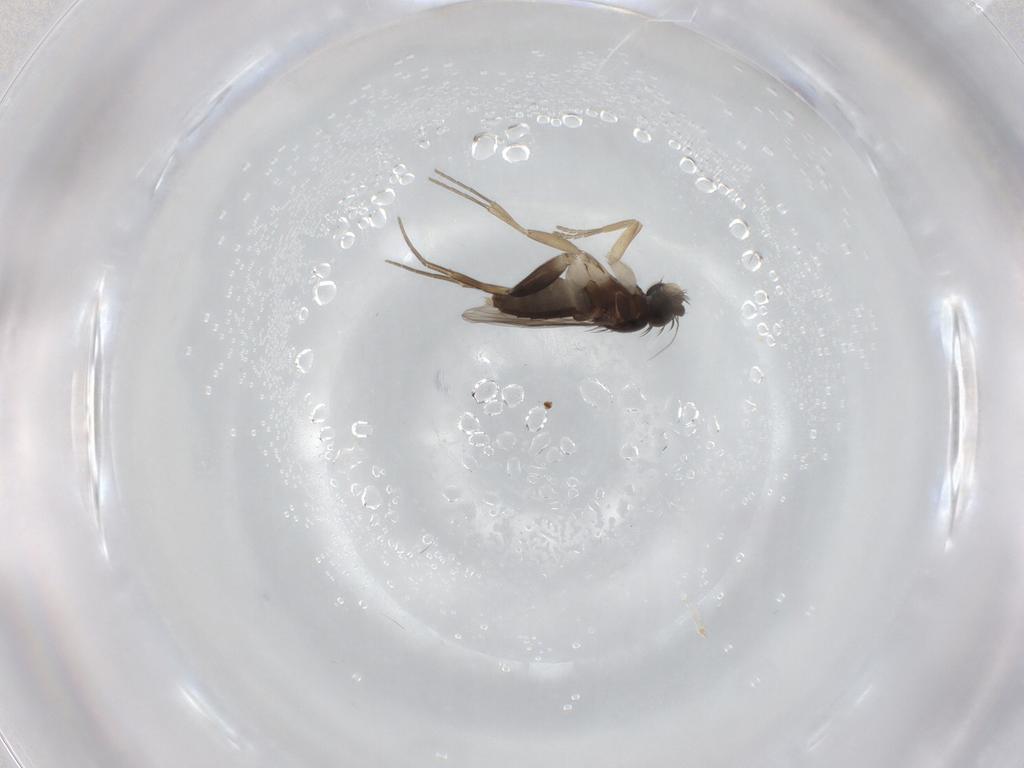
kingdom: Animalia
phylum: Arthropoda
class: Insecta
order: Diptera
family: Phoridae
